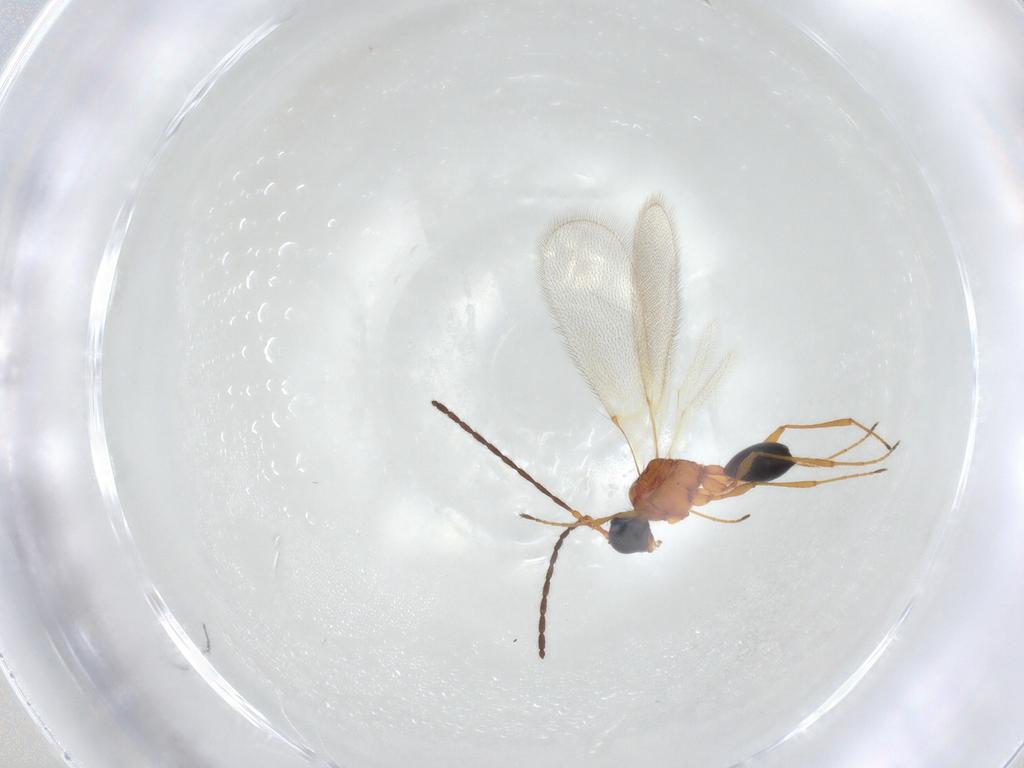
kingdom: Animalia
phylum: Arthropoda
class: Insecta
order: Hymenoptera
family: Diapriidae
